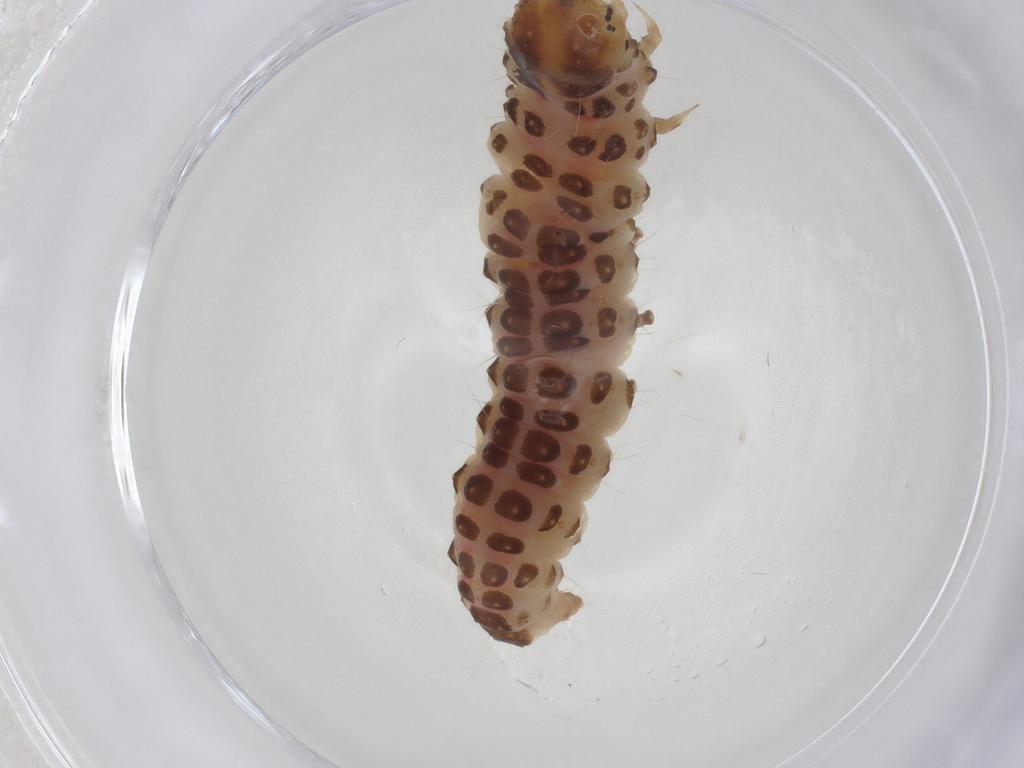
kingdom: Animalia
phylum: Arthropoda
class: Insecta
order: Lepidoptera
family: Crambidae
